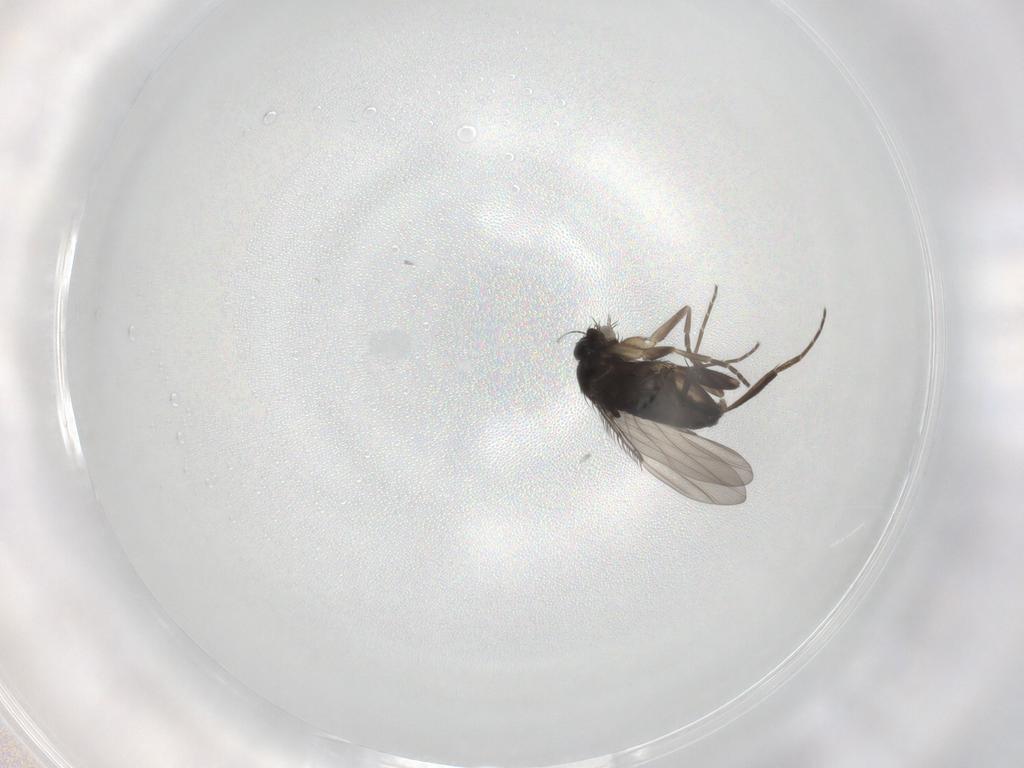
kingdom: Animalia
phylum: Arthropoda
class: Insecta
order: Diptera
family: Phoridae
